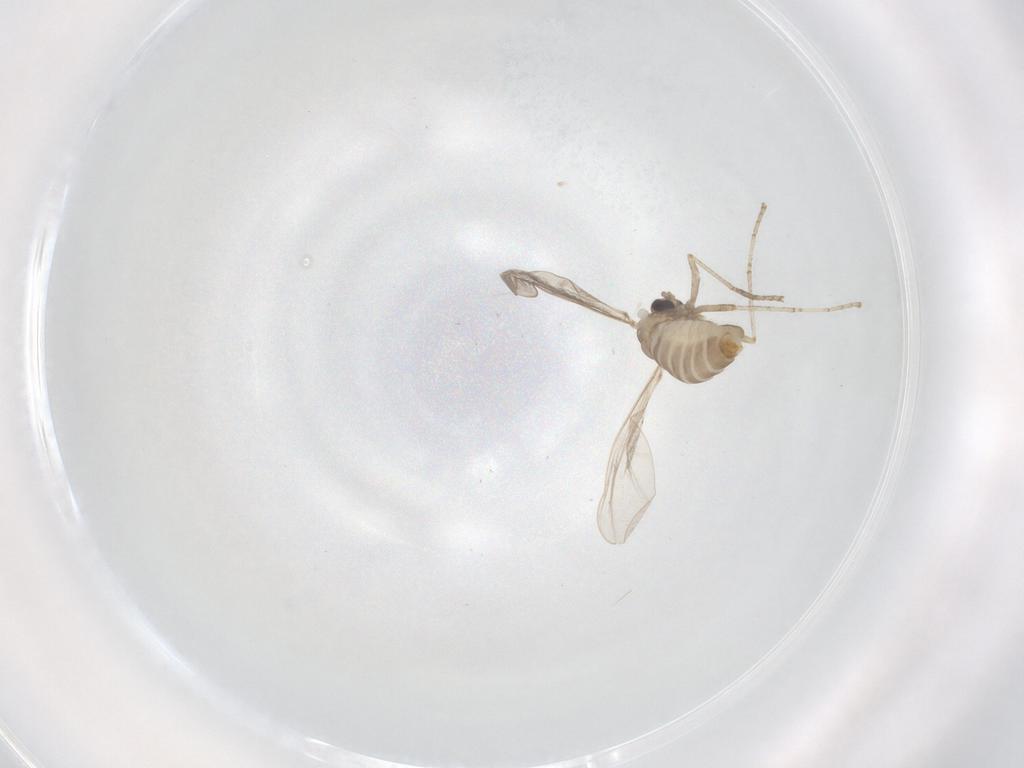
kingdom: Animalia
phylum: Arthropoda
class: Insecta
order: Diptera
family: Cecidomyiidae
